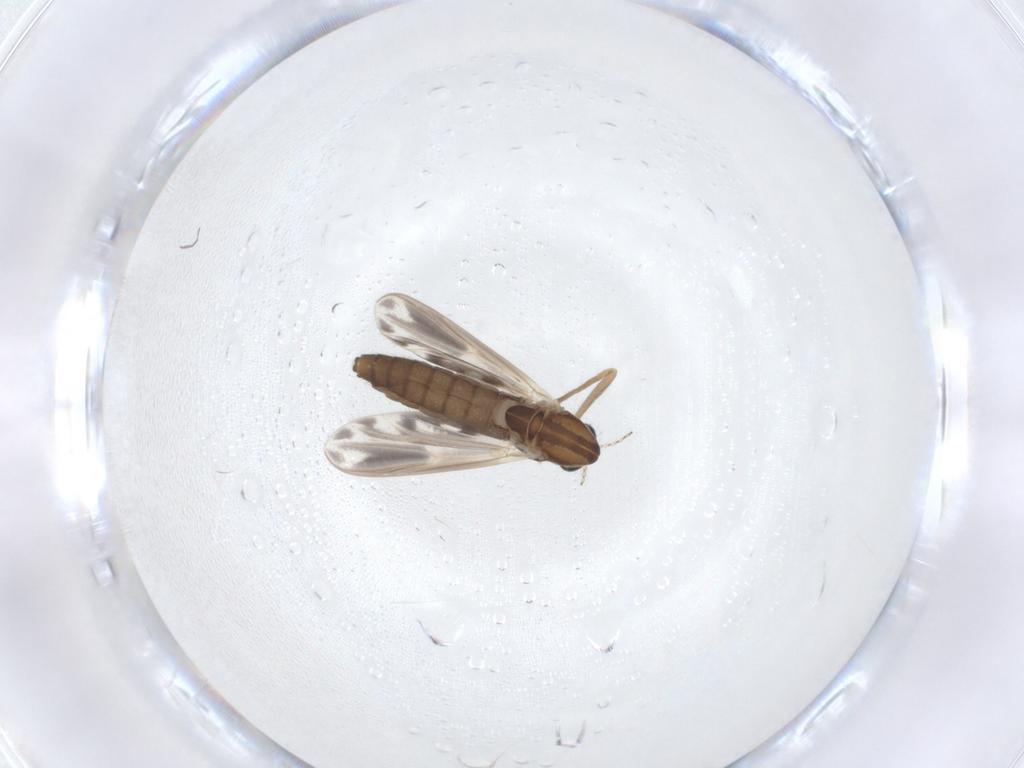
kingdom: Animalia
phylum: Arthropoda
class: Insecta
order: Diptera
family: Chironomidae
